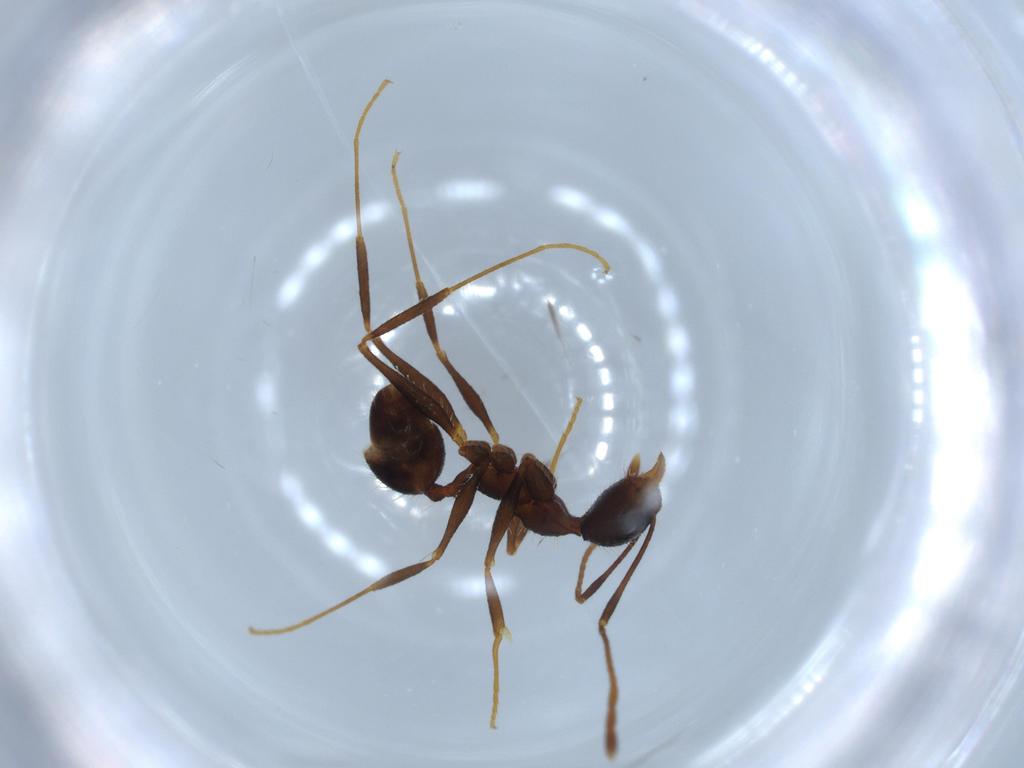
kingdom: Animalia
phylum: Arthropoda
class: Insecta
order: Hymenoptera
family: Formicidae
